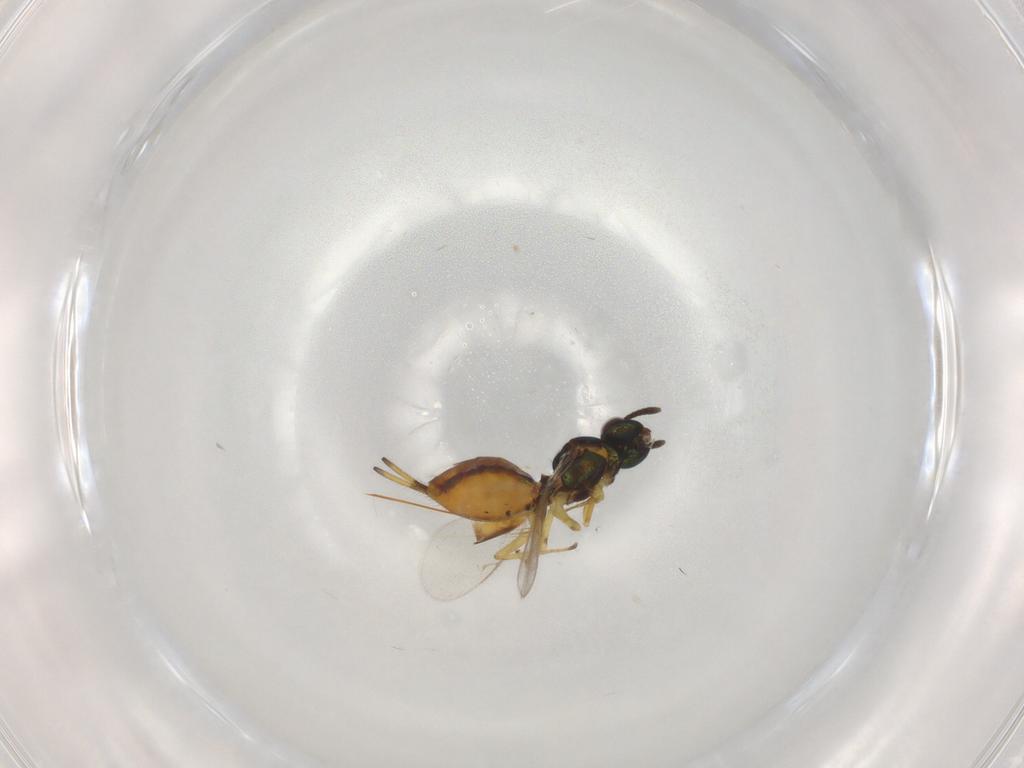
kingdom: Animalia
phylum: Arthropoda
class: Insecta
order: Hymenoptera
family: Eupelmidae
